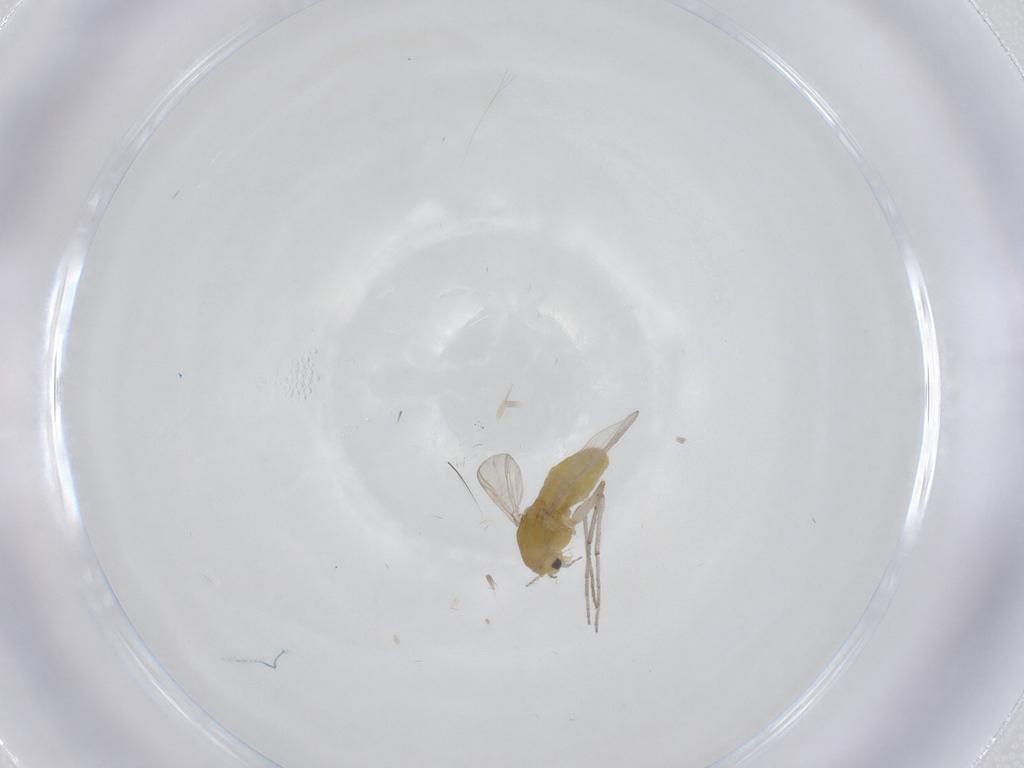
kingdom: Animalia
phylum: Arthropoda
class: Insecta
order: Diptera
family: Chironomidae
